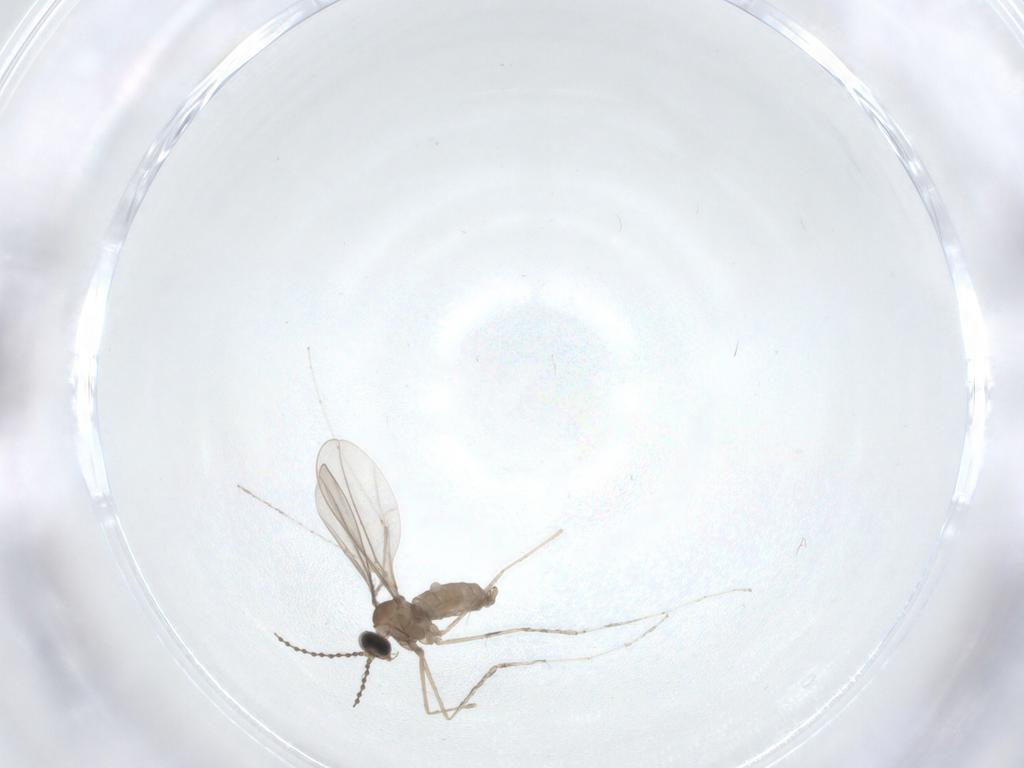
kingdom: Animalia
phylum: Arthropoda
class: Insecta
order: Diptera
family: Cecidomyiidae
